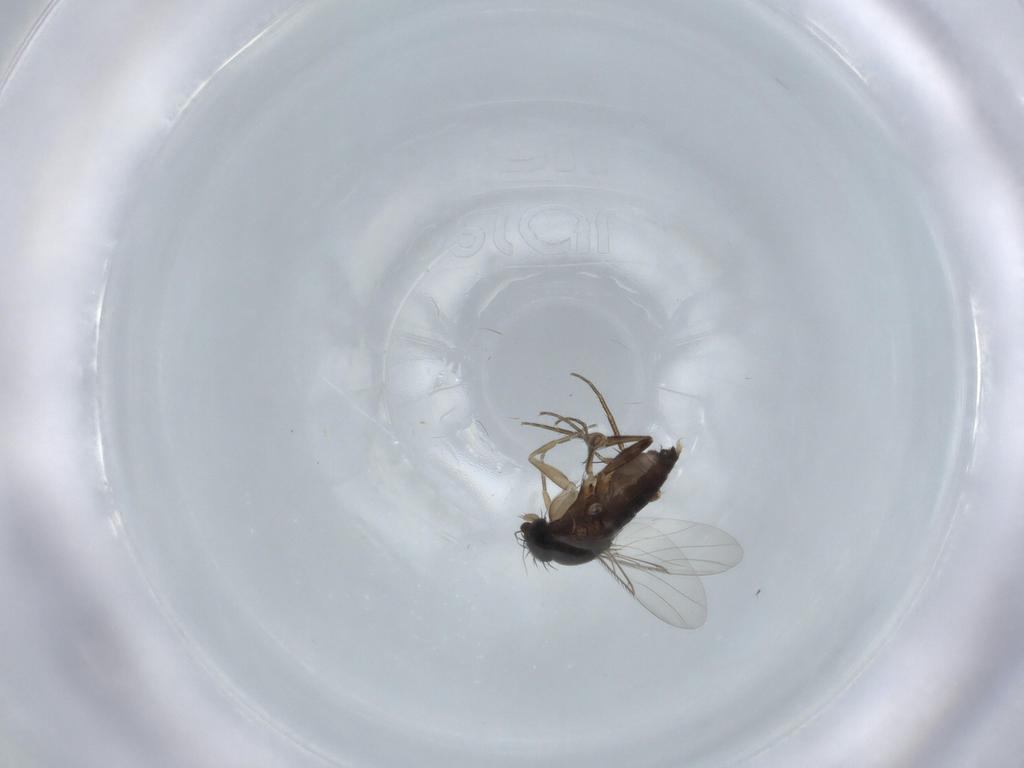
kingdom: Animalia
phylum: Arthropoda
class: Insecta
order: Diptera
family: Phoridae
